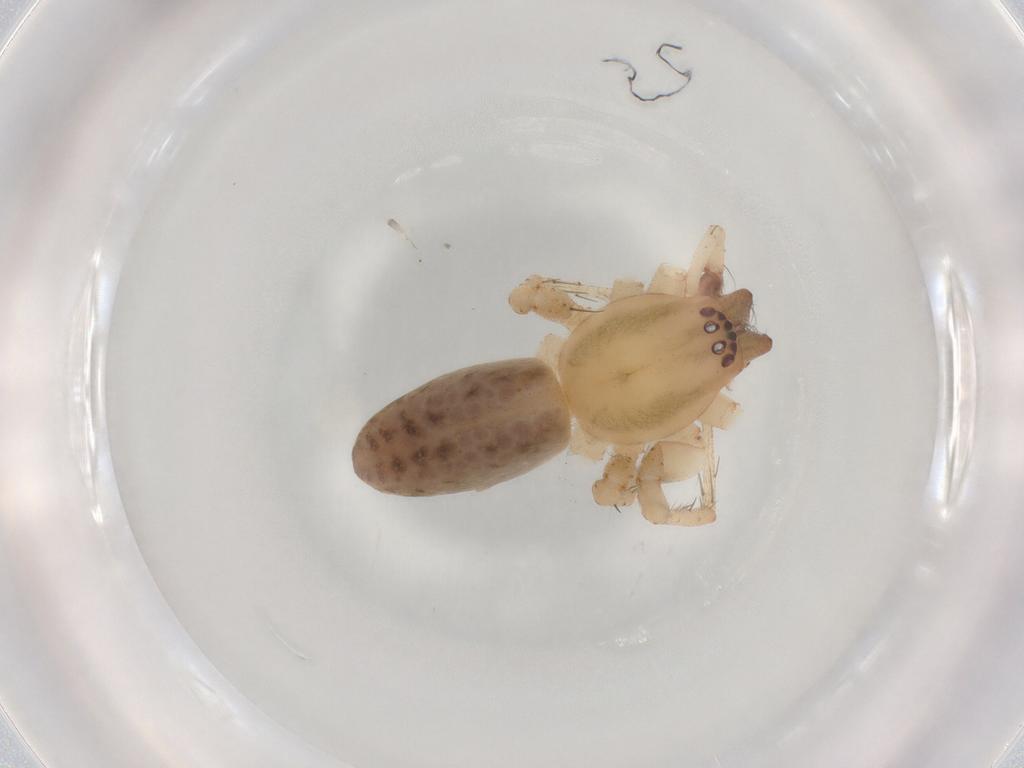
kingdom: Animalia
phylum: Arthropoda
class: Arachnida
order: Araneae
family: Anyphaenidae
